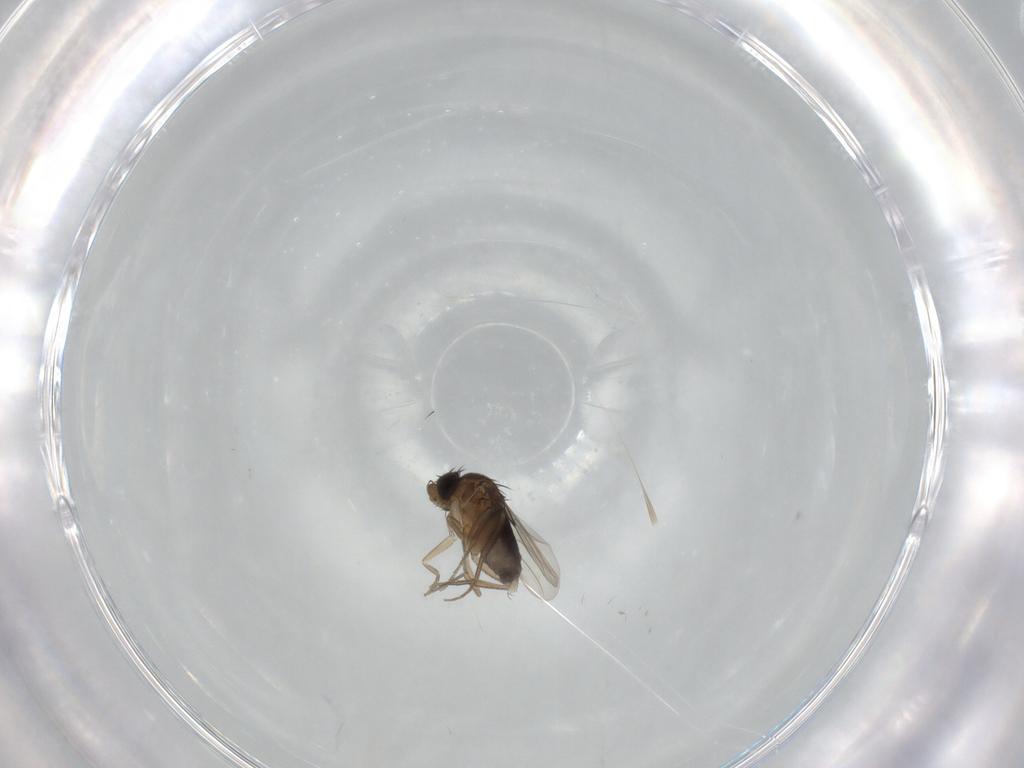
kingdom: Animalia
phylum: Arthropoda
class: Insecta
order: Diptera
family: Phoridae
